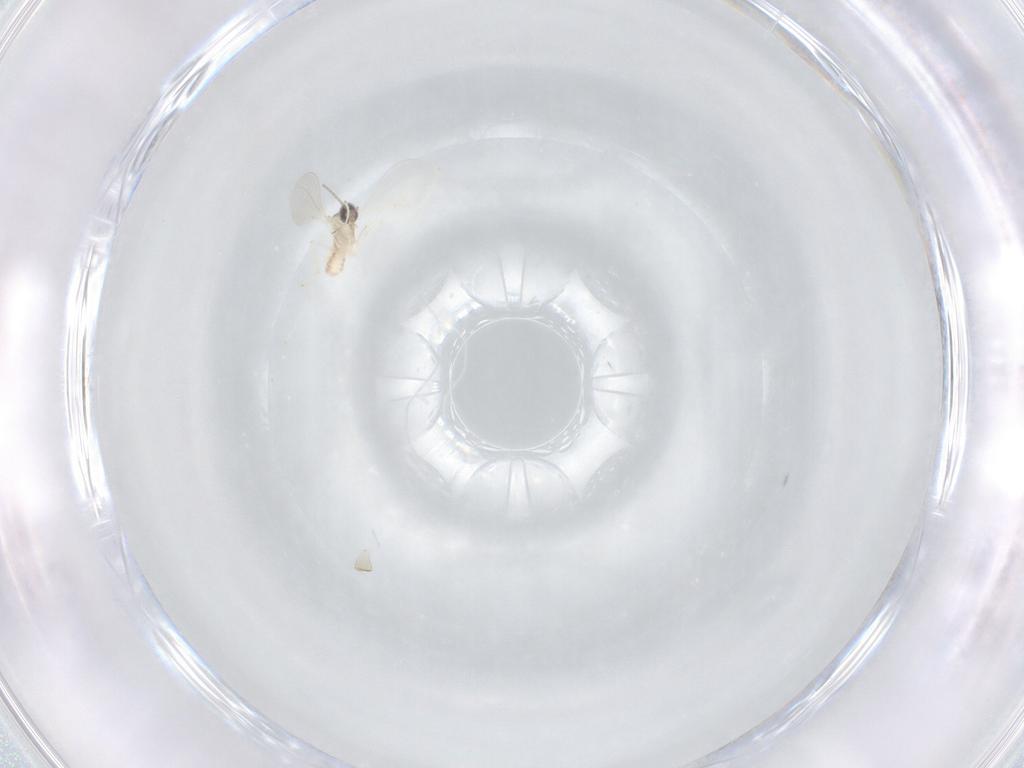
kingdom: Animalia
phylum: Arthropoda
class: Insecta
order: Diptera
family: Cecidomyiidae
